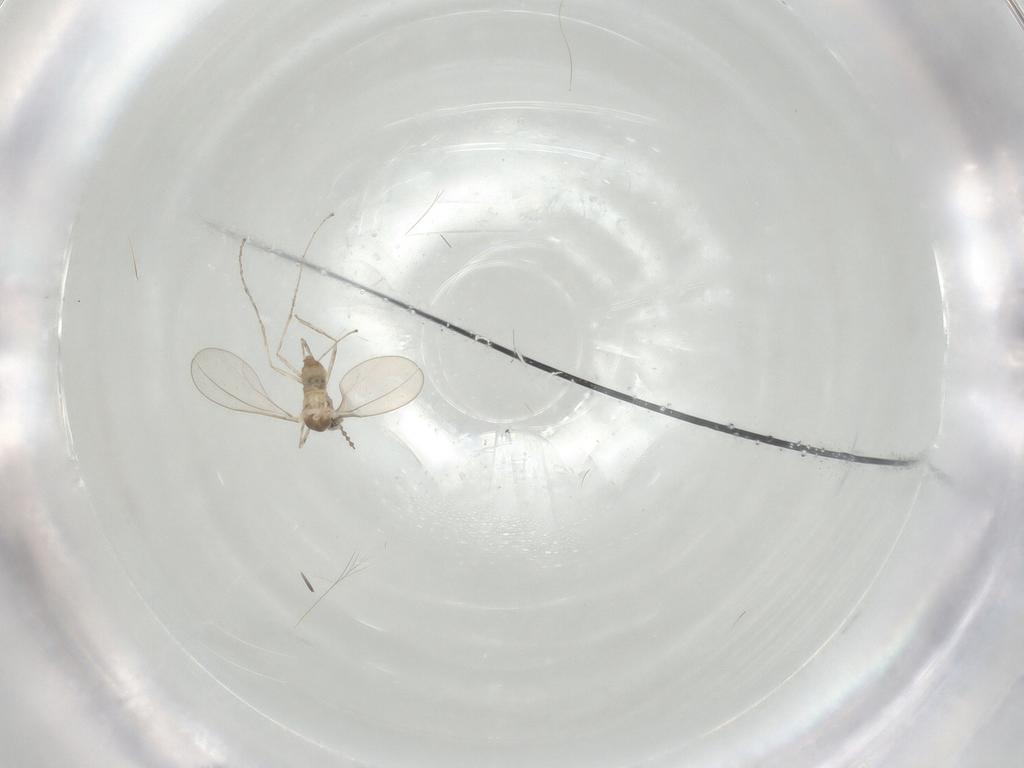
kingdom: Animalia
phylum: Arthropoda
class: Insecta
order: Diptera
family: Cecidomyiidae
